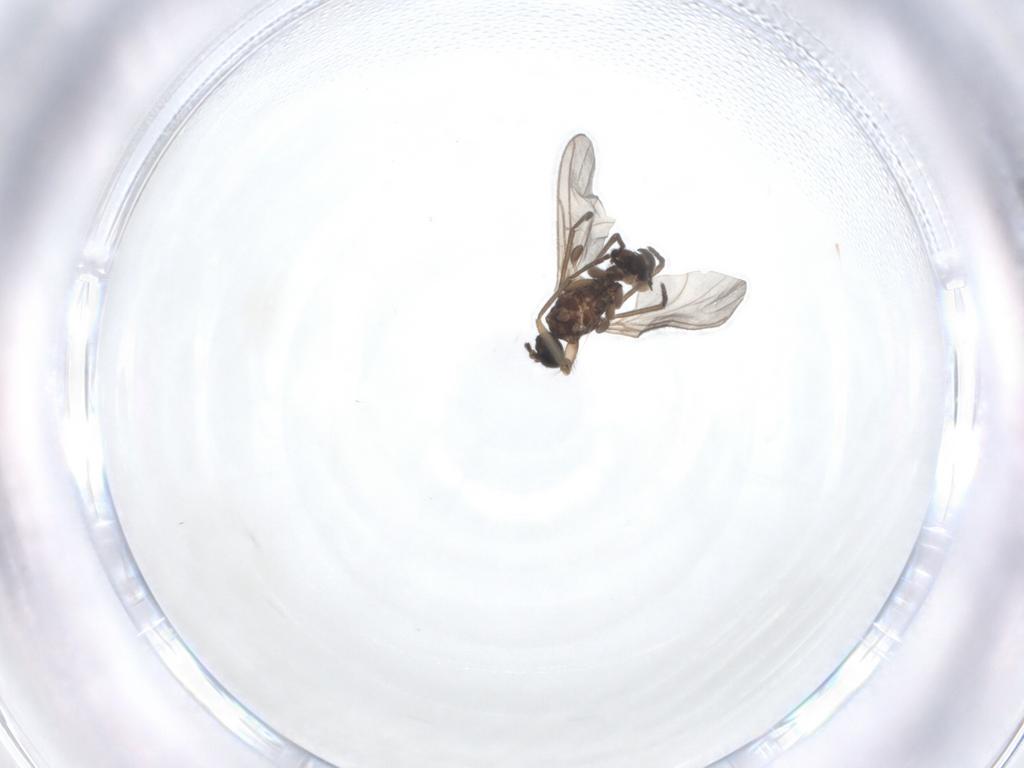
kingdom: Animalia
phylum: Arthropoda
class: Insecta
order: Diptera
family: Sciaridae
